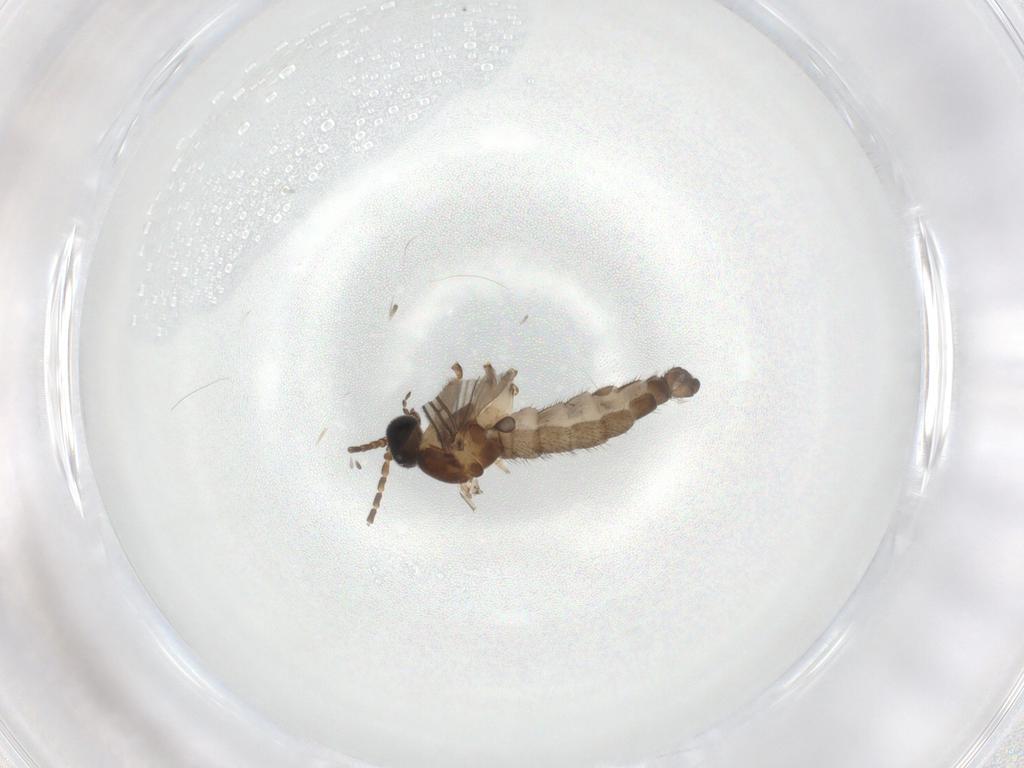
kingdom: Animalia
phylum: Arthropoda
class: Insecta
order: Diptera
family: Sciaridae
